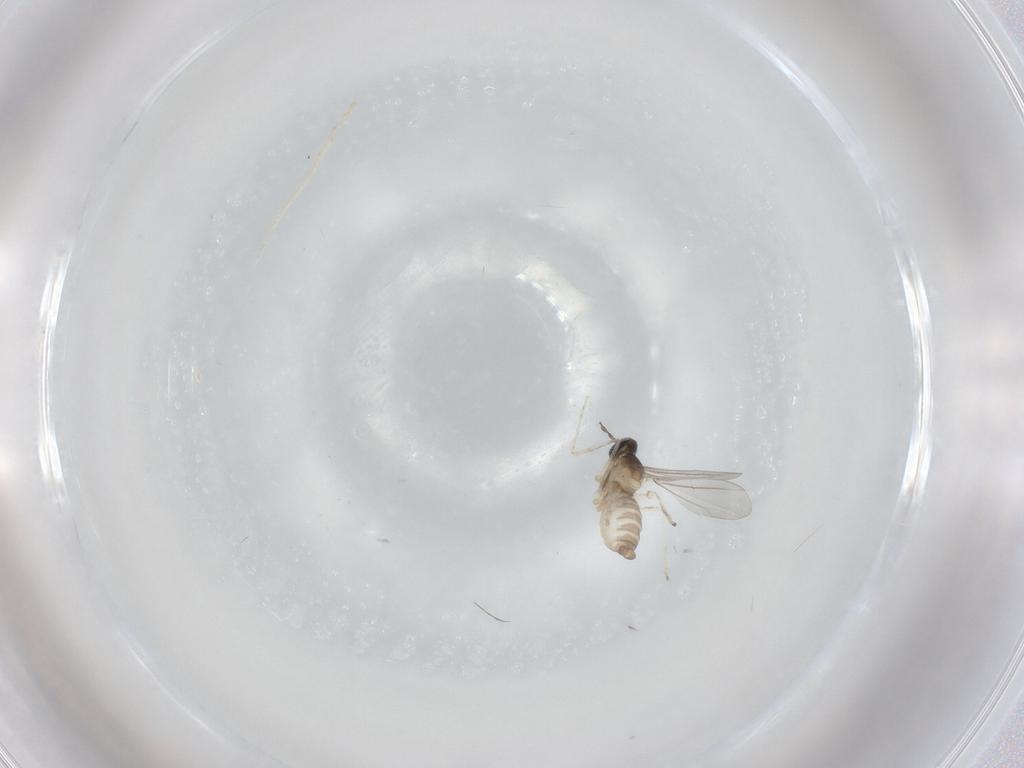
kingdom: Animalia
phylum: Arthropoda
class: Insecta
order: Diptera
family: Cecidomyiidae
